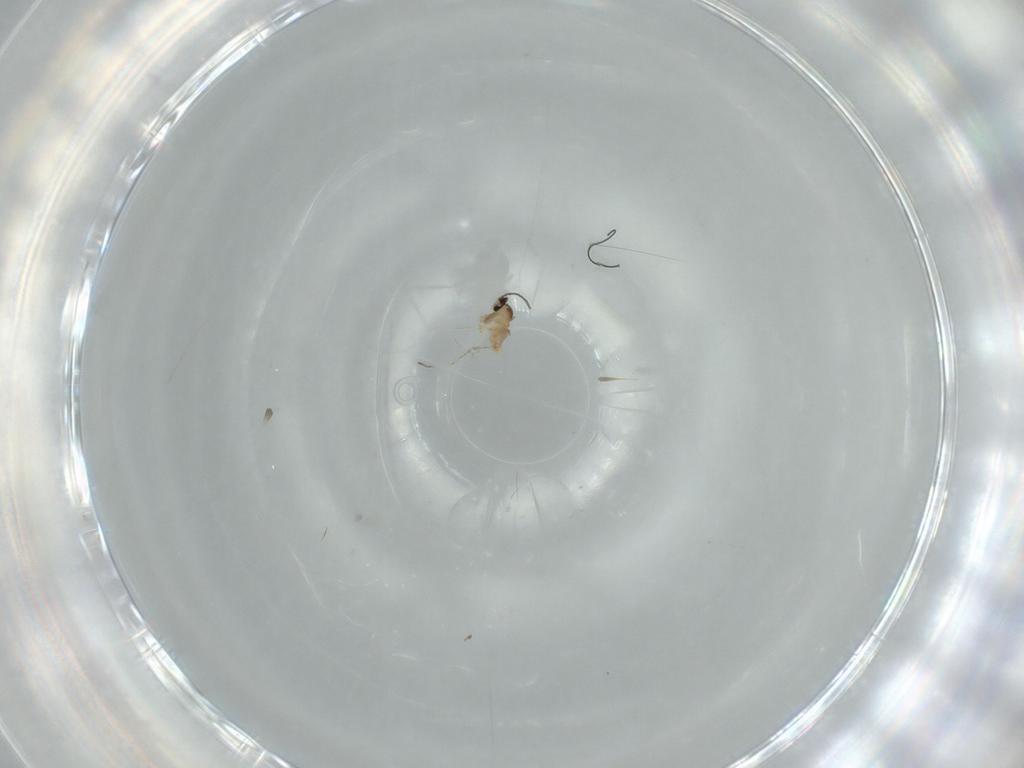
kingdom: Animalia
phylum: Arthropoda
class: Insecta
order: Diptera
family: Cecidomyiidae
